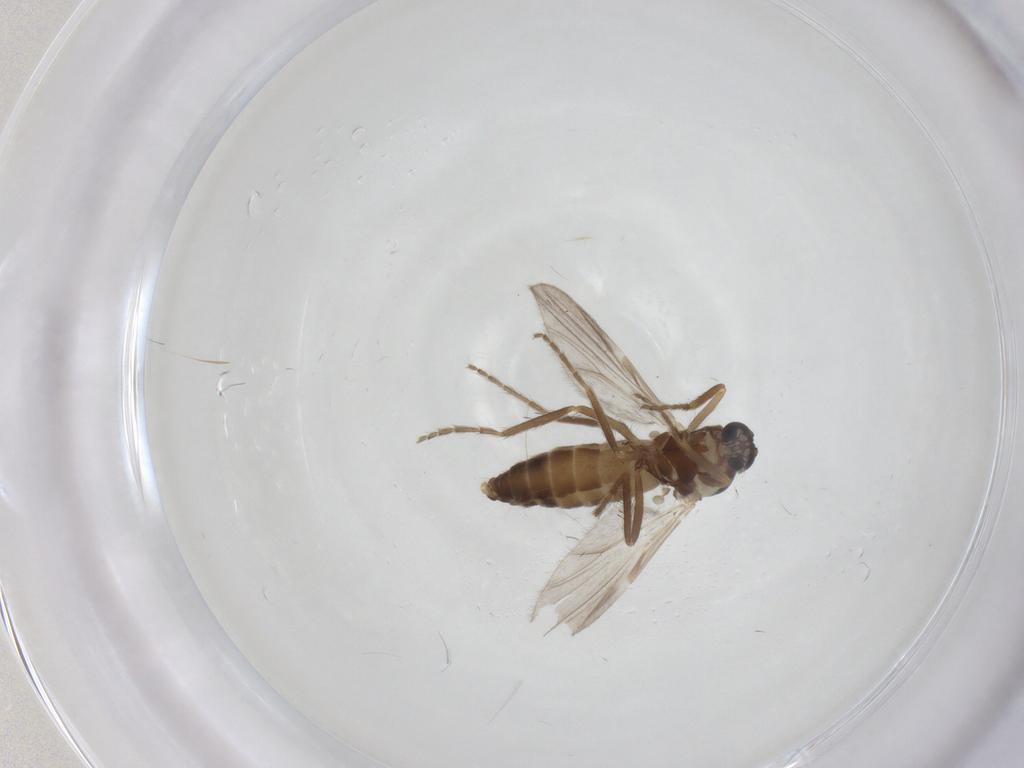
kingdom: Animalia
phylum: Arthropoda
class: Insecta
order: Diptera
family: Ceratopogonidae
